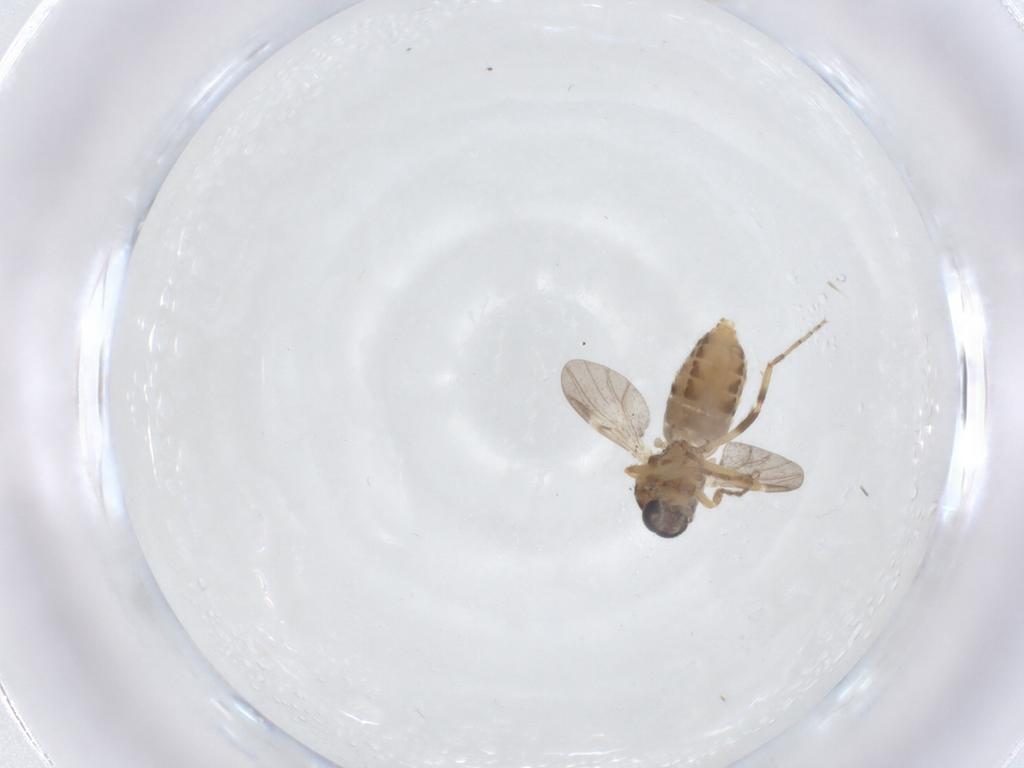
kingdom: Animalia
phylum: Arthropoda
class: Insecta
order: Diptera
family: Ceratopogonidae
